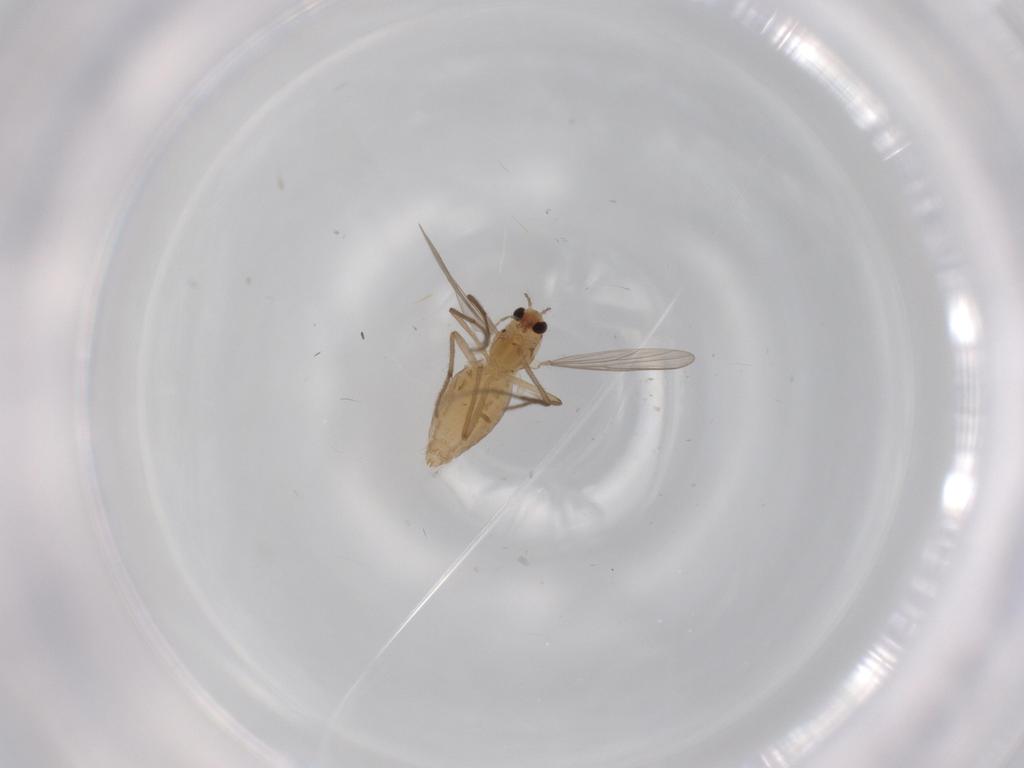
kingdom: Animalia
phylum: Arthropoda
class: Insecta
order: Diptera
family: Chironomidae
